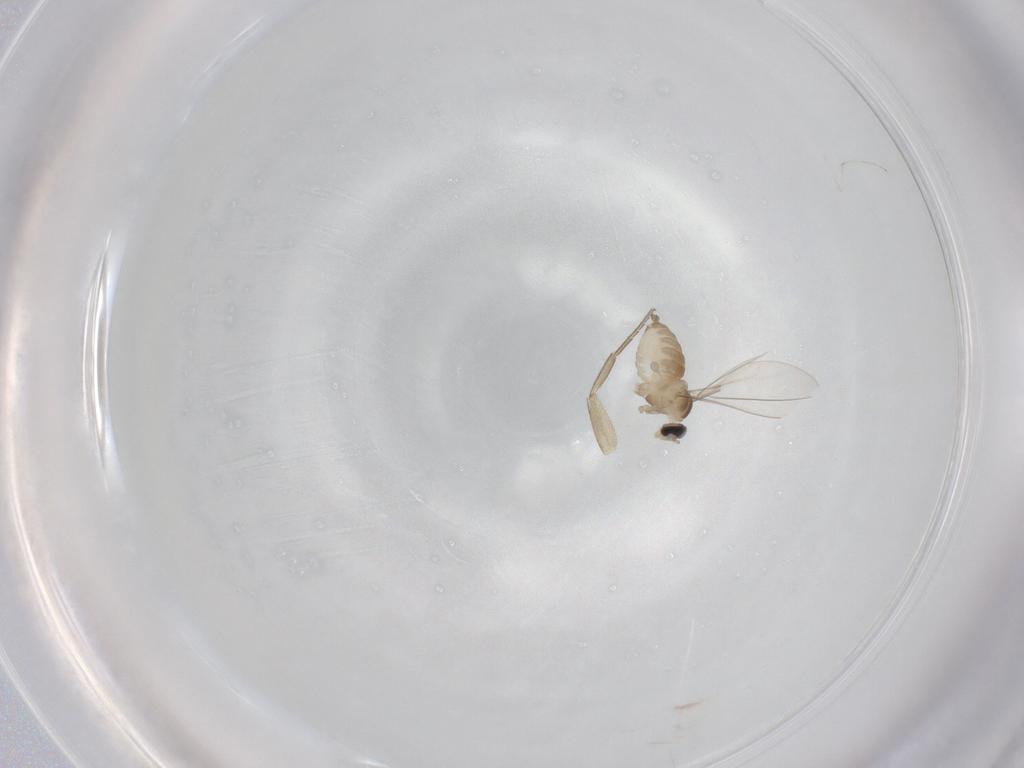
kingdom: Animalia
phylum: Arthropoda
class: Insecta
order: Diptera
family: Cecidomyiidae
